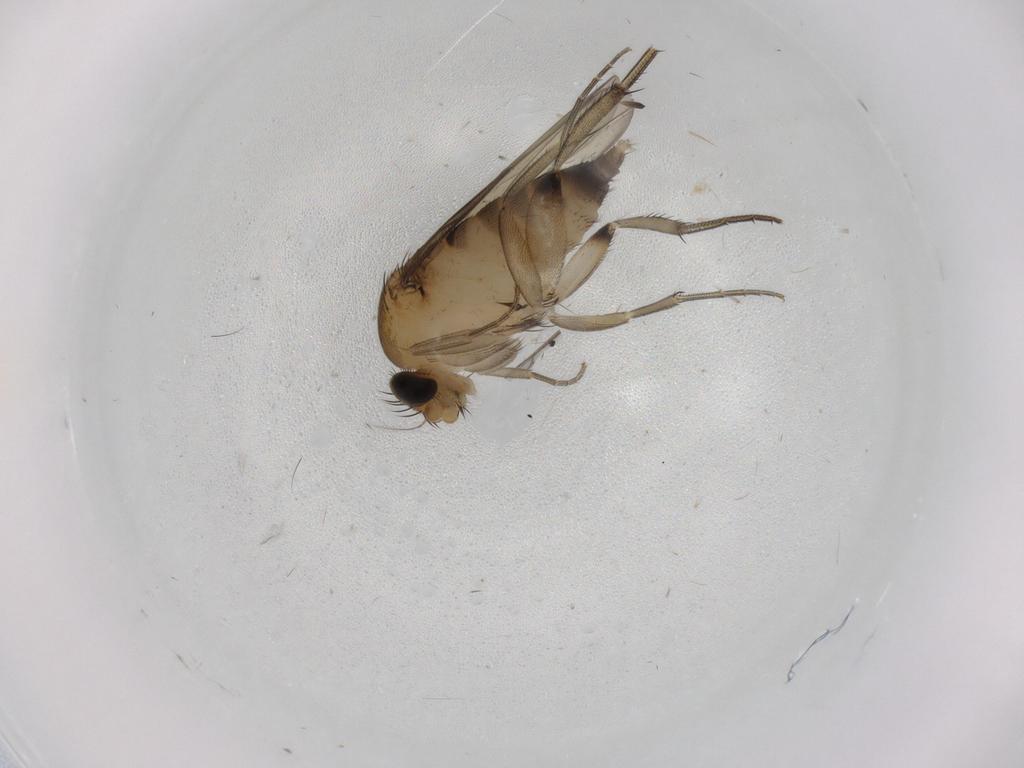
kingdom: Animalia
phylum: Arthropoda
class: Insecta
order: Diptera
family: Phoridae
